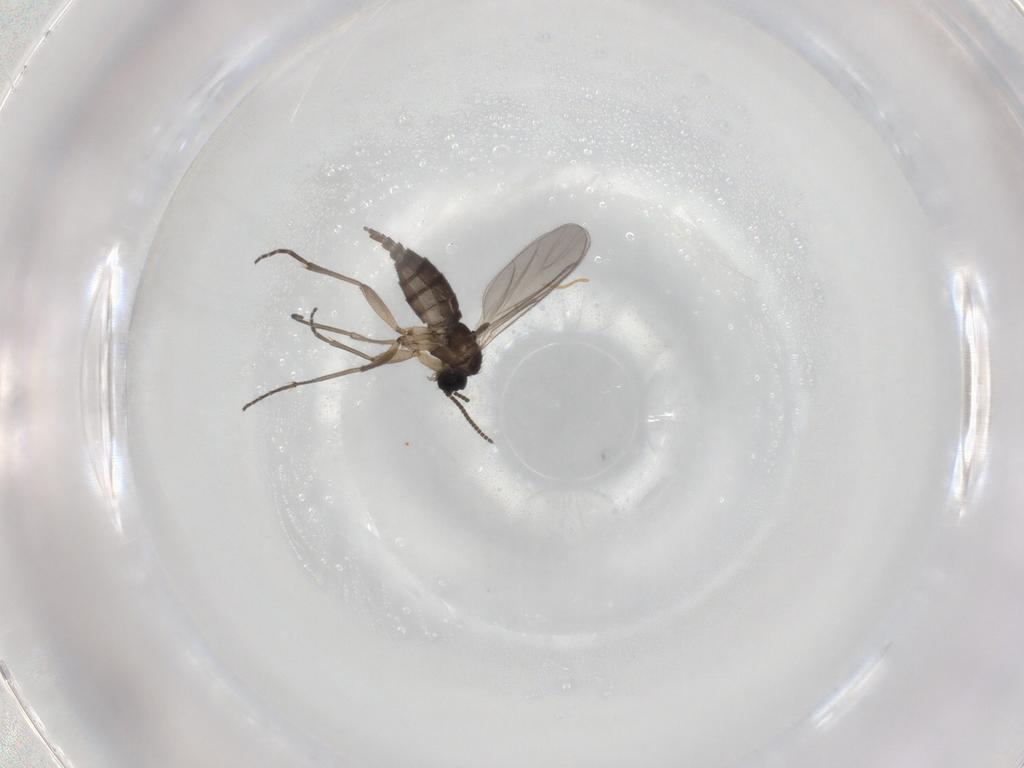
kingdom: Animalia
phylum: Arthropoda
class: Insecta
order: Diptera
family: Sciaridae
